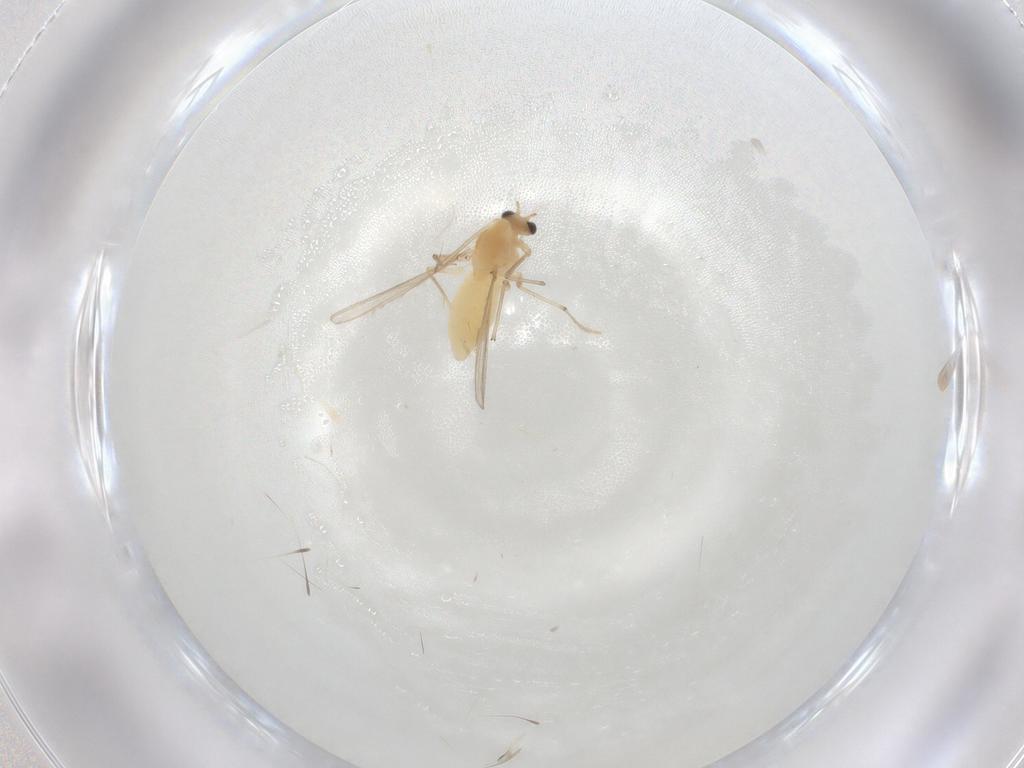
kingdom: Animalia
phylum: Arthropoda
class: Insecta
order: Diptera
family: Chironomidae
